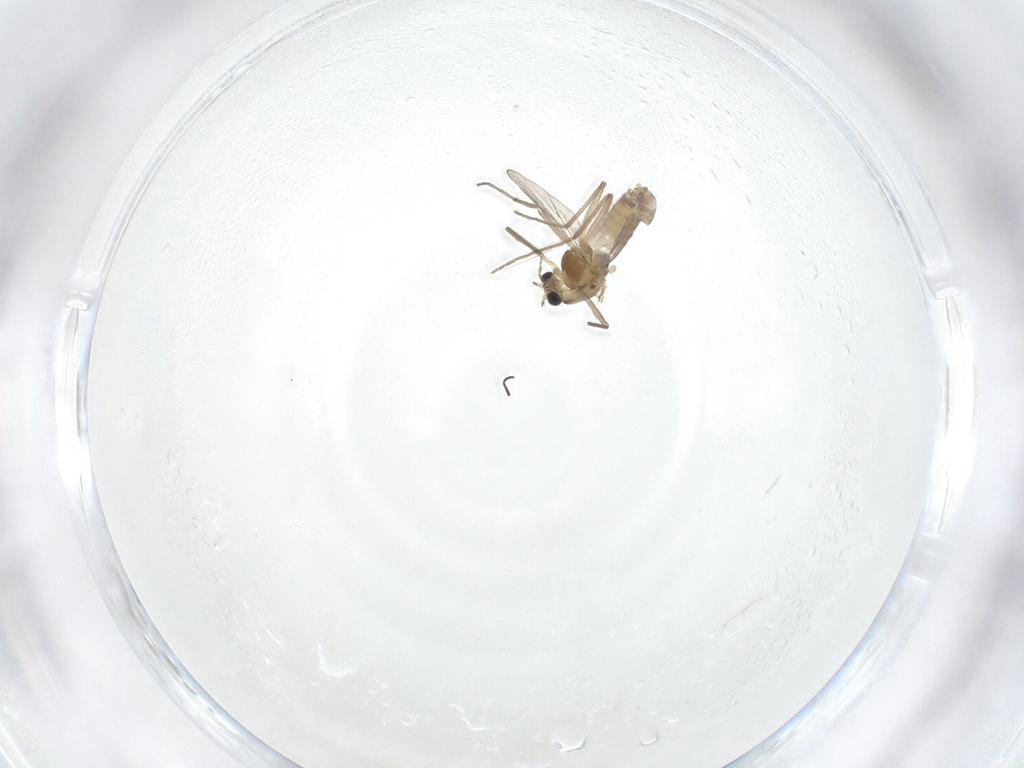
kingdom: Animalia
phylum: Arthropoda
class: Insecta
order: Diptera
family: Chironomidae
